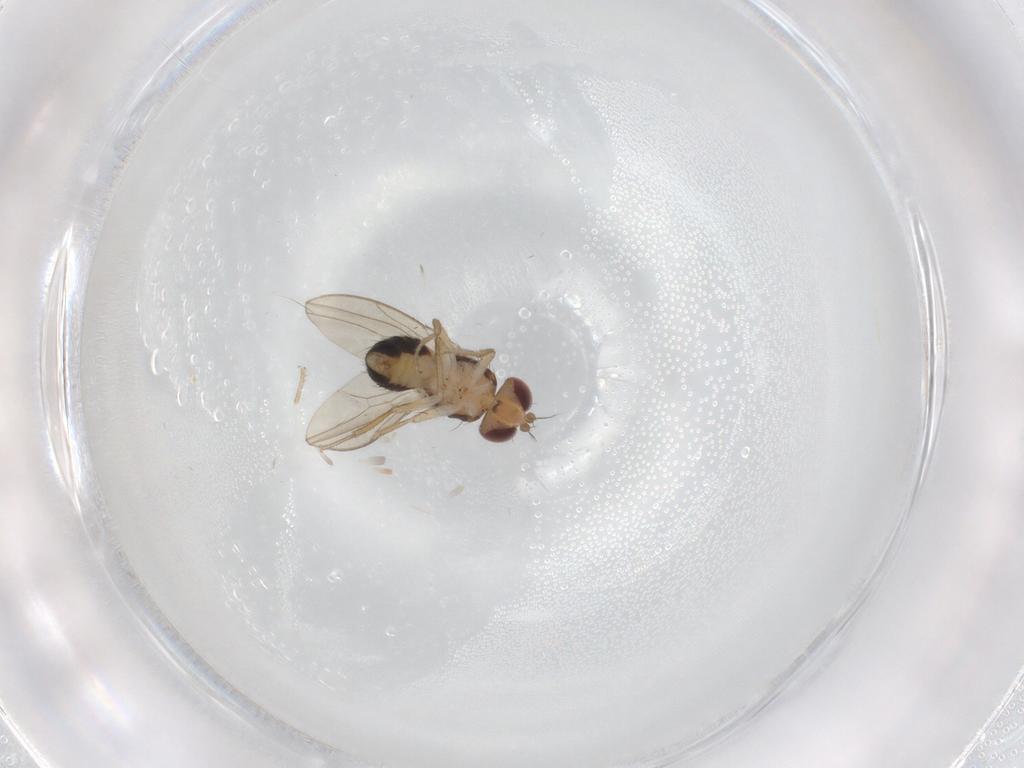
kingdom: Animalia
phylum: Arthropoda
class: Insecta
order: Diptera
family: Drosophilidae
